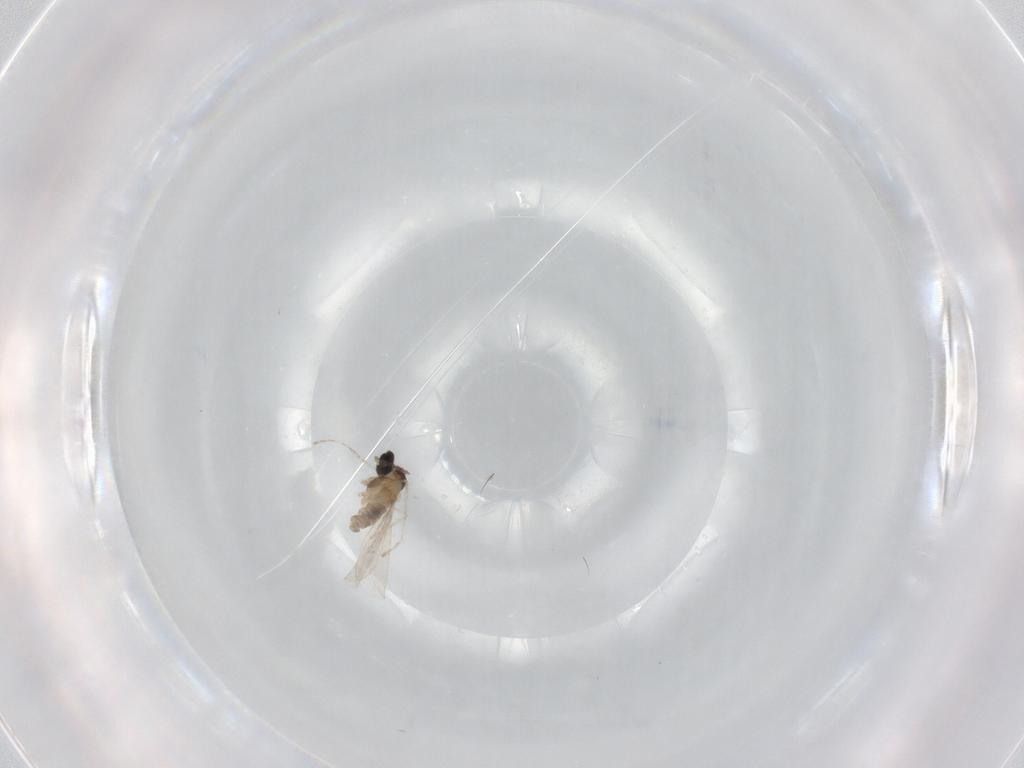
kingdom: Animalia
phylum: Arthropoda
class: Insecta
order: Diptera
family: Cecidomyiidae
